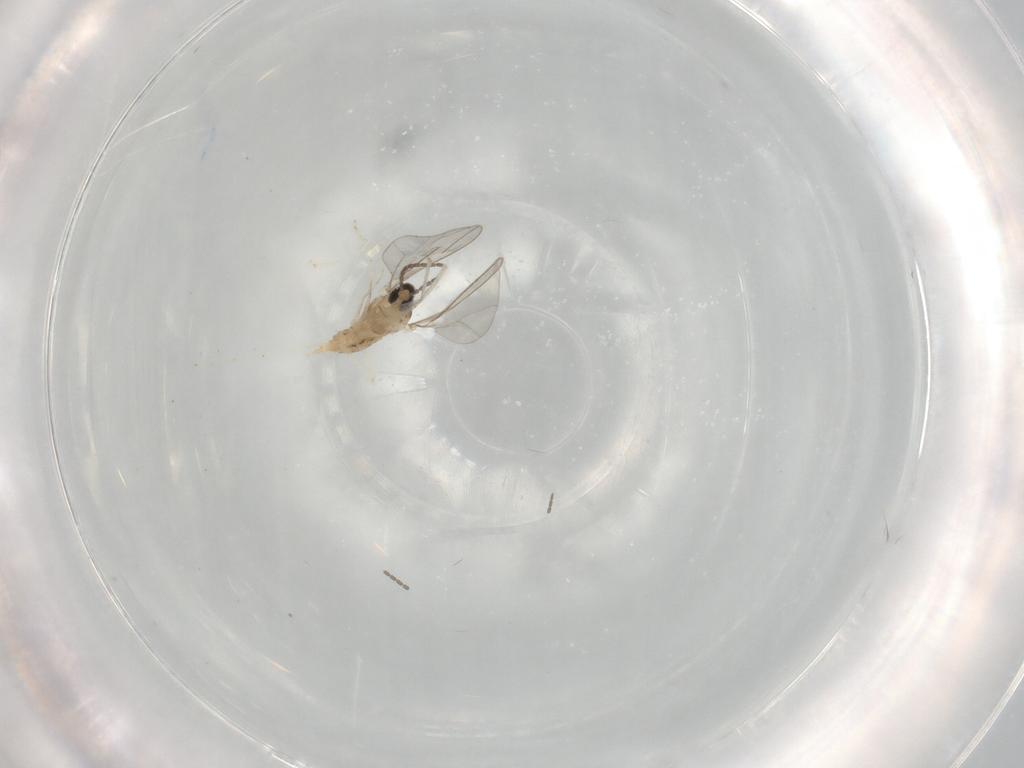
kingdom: Animalia
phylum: Arthropoda
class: Insecta
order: Diptera
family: Cecidomyiidae
